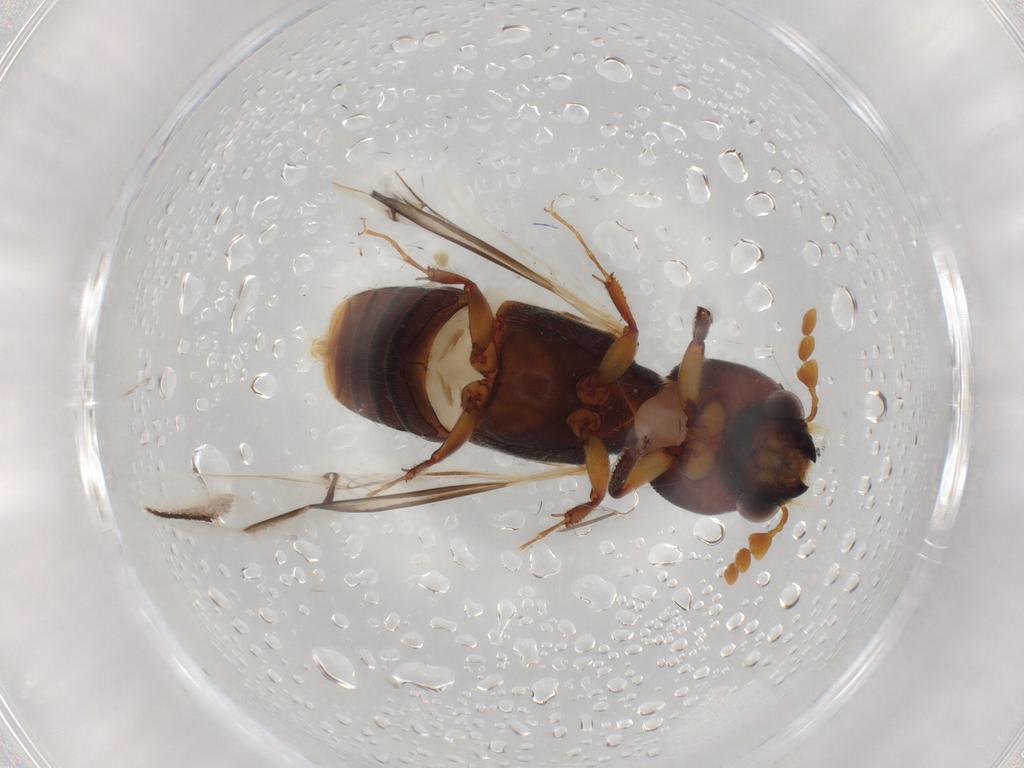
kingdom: Animalia
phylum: Arthropoda
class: Insecta
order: Coleoptera
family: Bostrichidae
